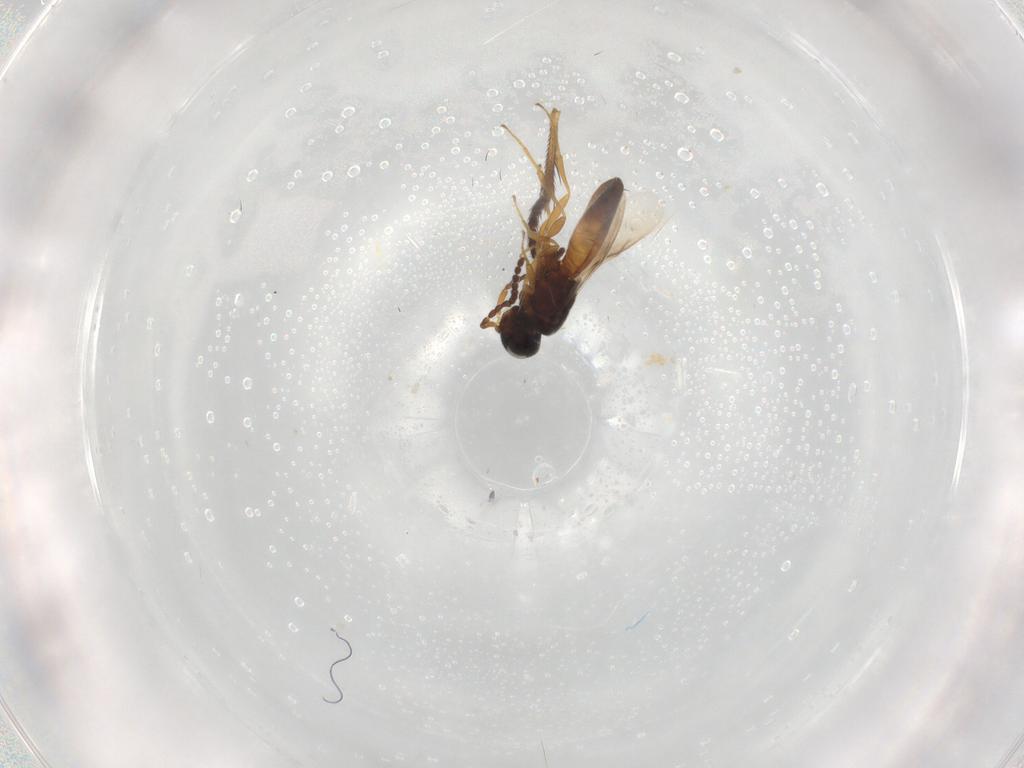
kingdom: Animalia
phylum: Arthropoda
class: Insecta
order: Hymenoptera
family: Scelionidae
